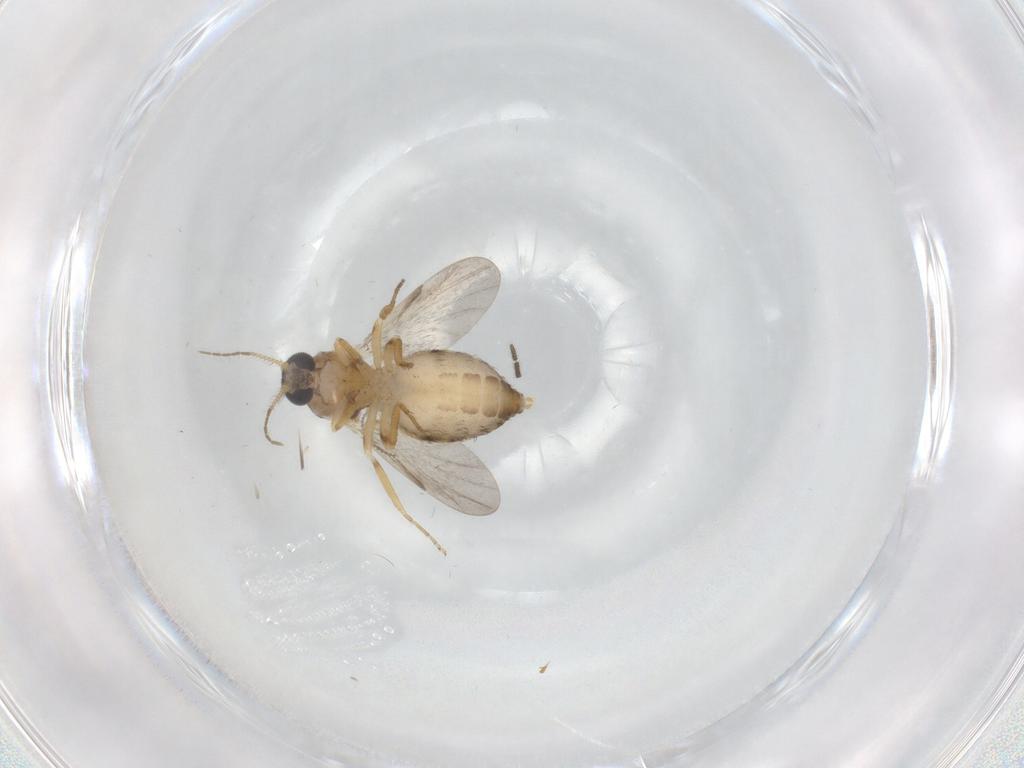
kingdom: Animalia
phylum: Arthropoda
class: Insecta
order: Diptera
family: Ceratopogonidae
